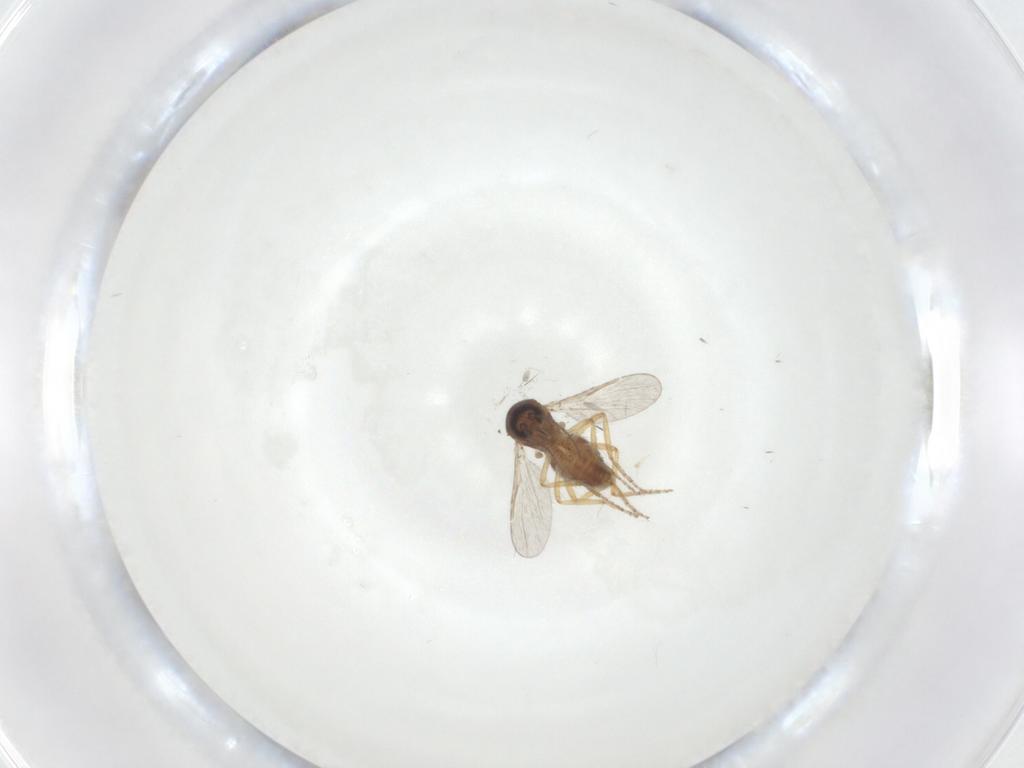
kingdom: Animalia
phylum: Arthropoda
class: Insecta
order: Diptera
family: Ceratopogonidae
